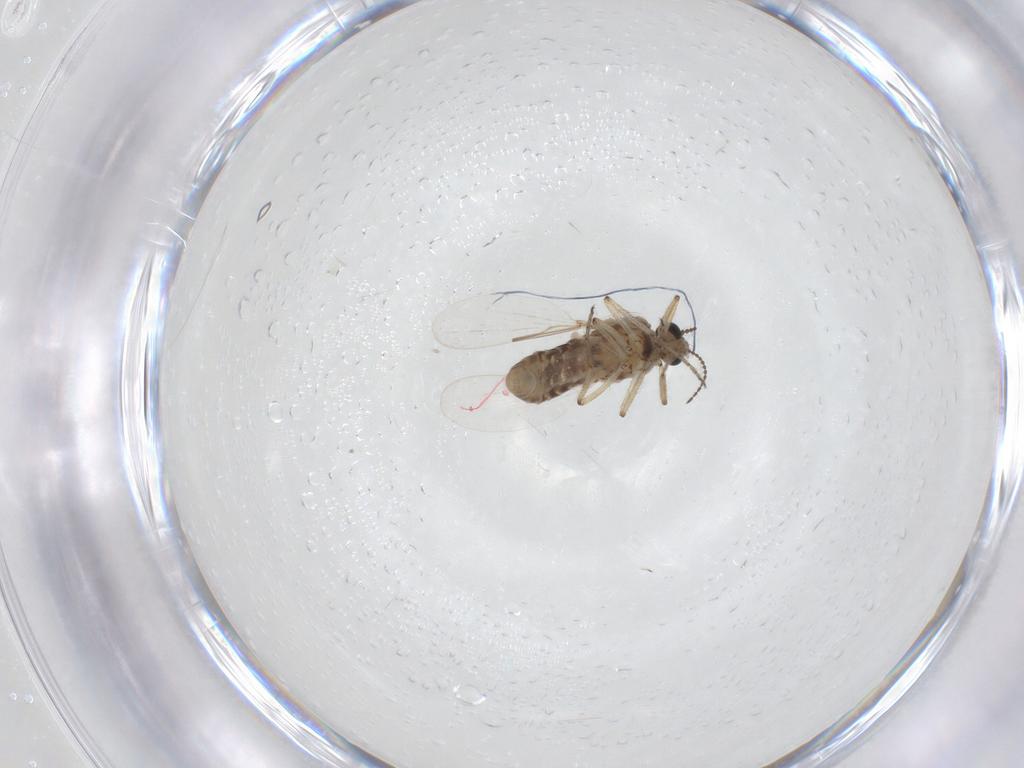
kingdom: Animalia
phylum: Arthropoda
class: Insecta
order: Diptera
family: Ceratopogonidae
